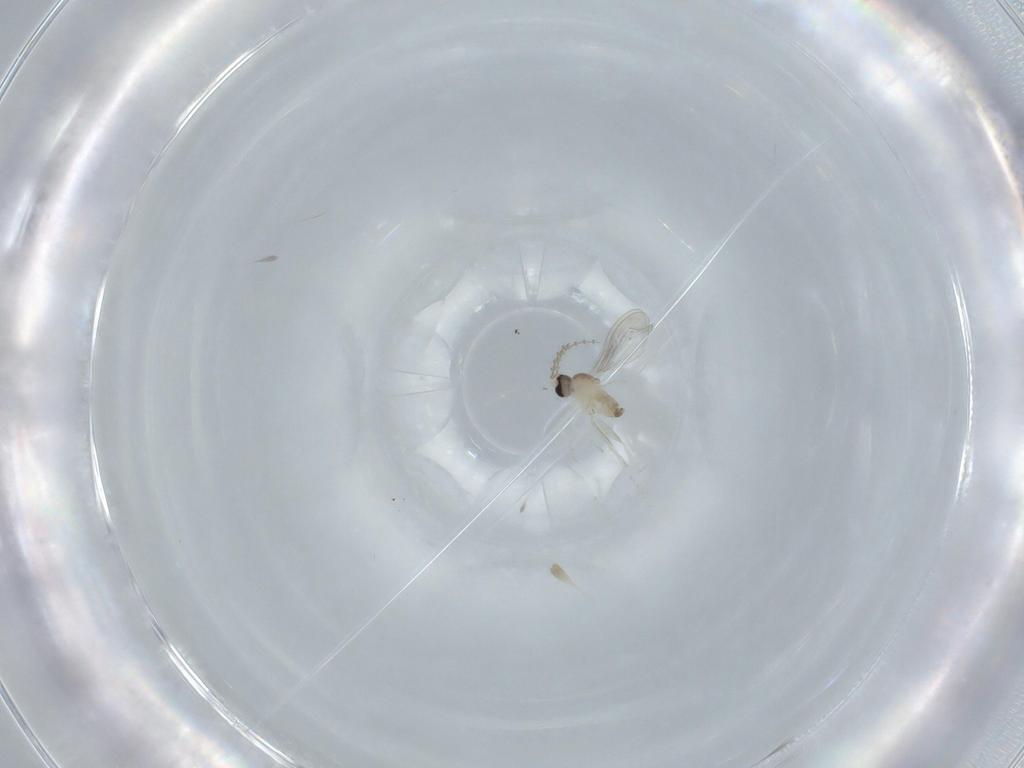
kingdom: Animalia
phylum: Arthropoda
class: Insecta
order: Diptera
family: Cecidomyiidae
